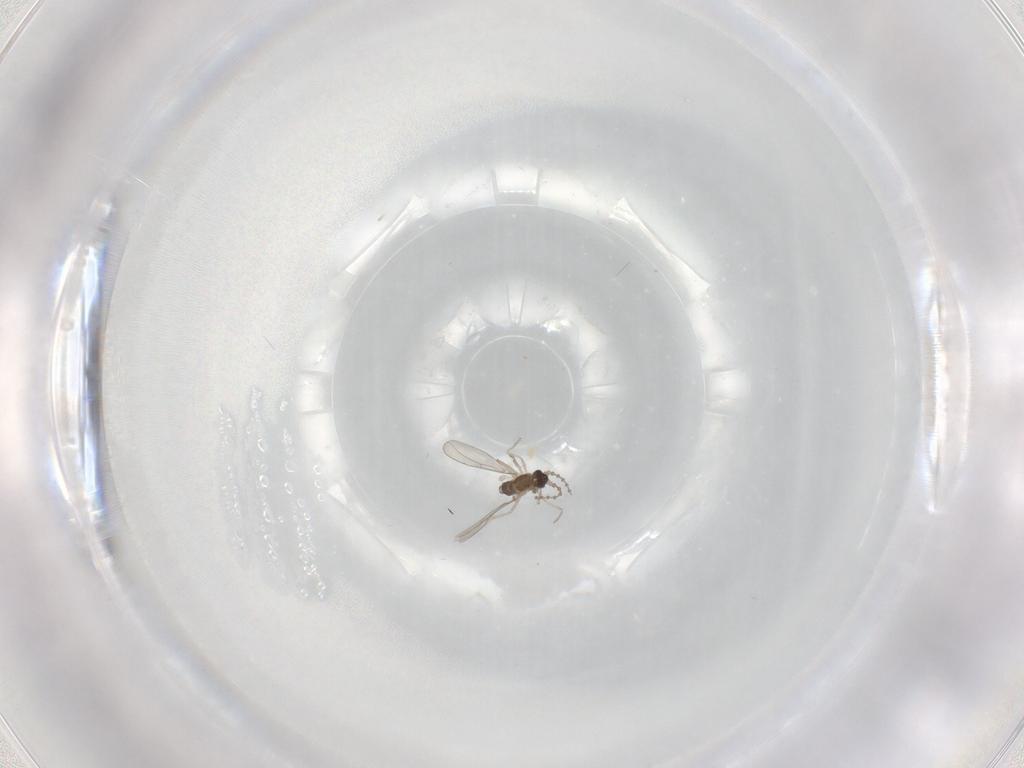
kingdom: Animalia
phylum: Arthropoda
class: Insecta
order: Diptera
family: Cecidomyiidae
